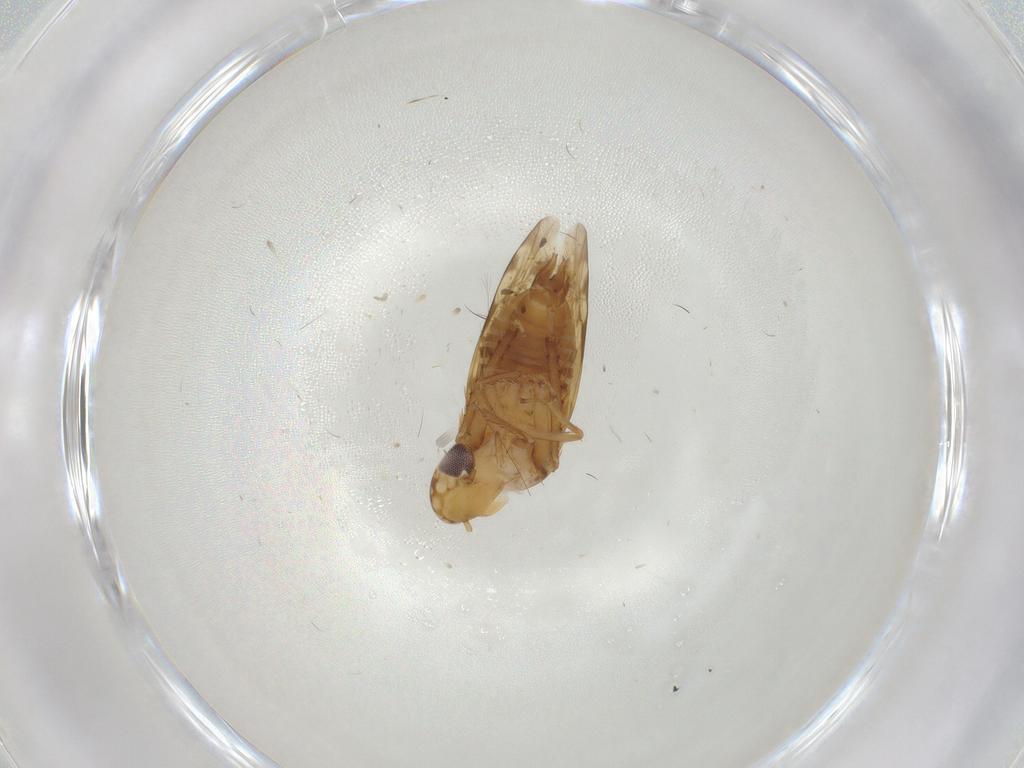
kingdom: Animalia
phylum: Arthropoda
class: Insecta
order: Hemiptera
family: Cicadellidae
